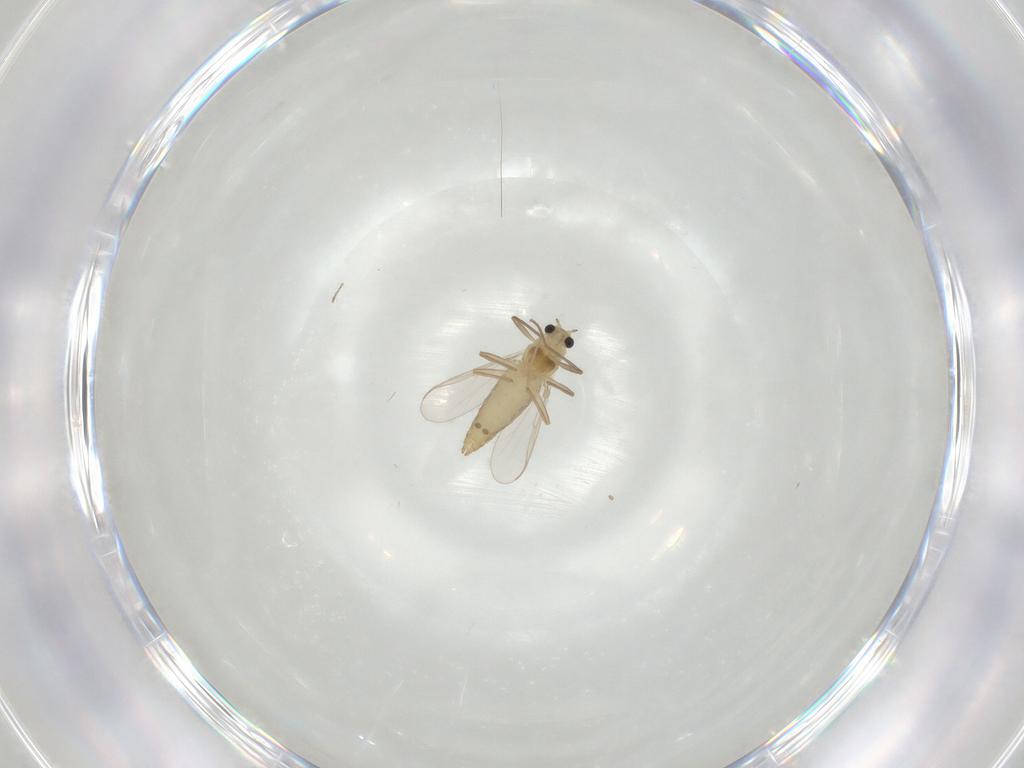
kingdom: Animalia
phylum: Arthropoda
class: Insecta
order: Diptera
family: Chironomidae
